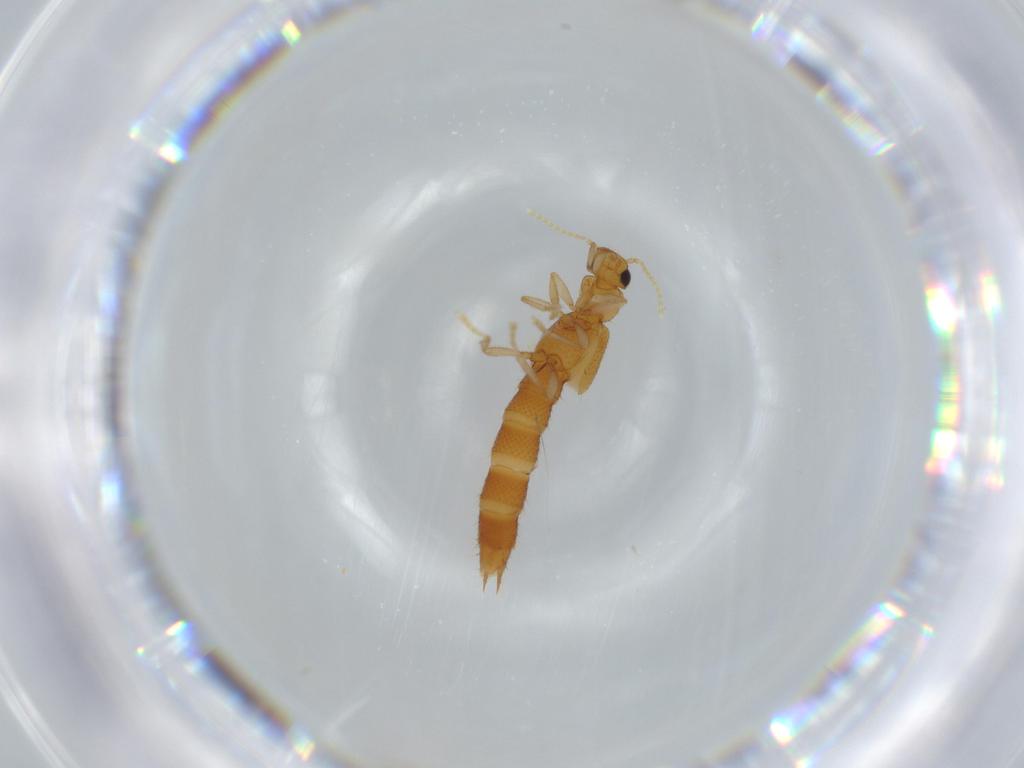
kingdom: Animalia
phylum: Arthropoda
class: Insecta
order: Coleoptera
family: Staphylinidae
